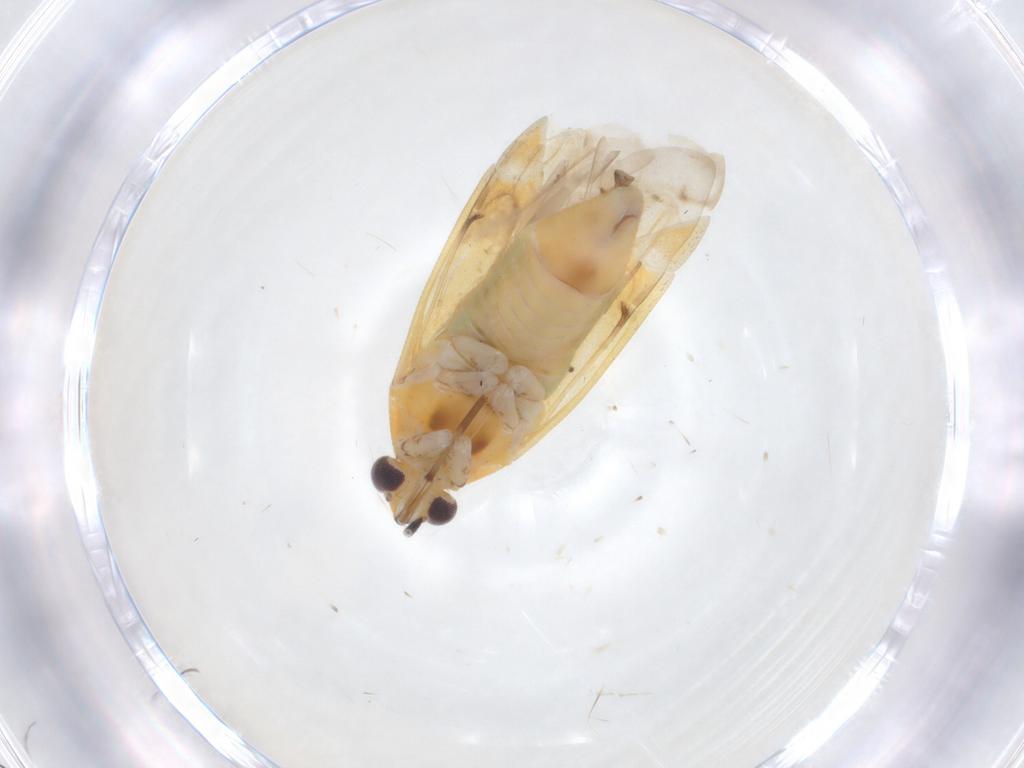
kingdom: Animalia
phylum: Arthropoda
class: Insecta
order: Hemiptera
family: Miridae
